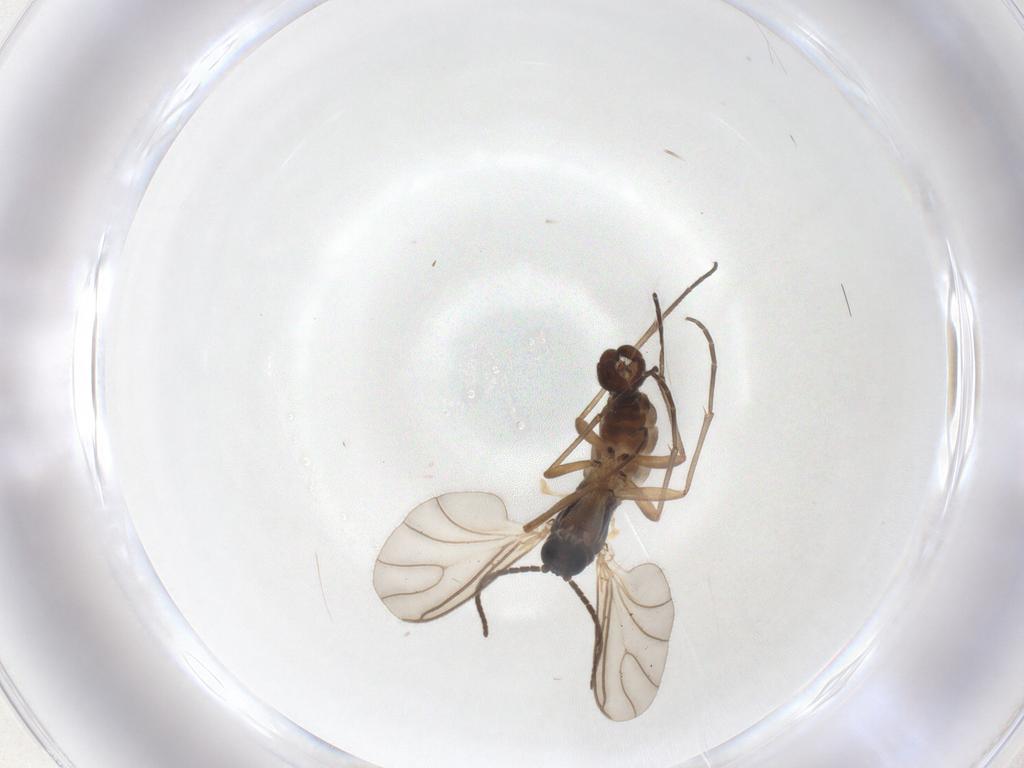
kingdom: Animalia
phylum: Arthropoda
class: Insecta
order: Diptera
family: Sciaridae
